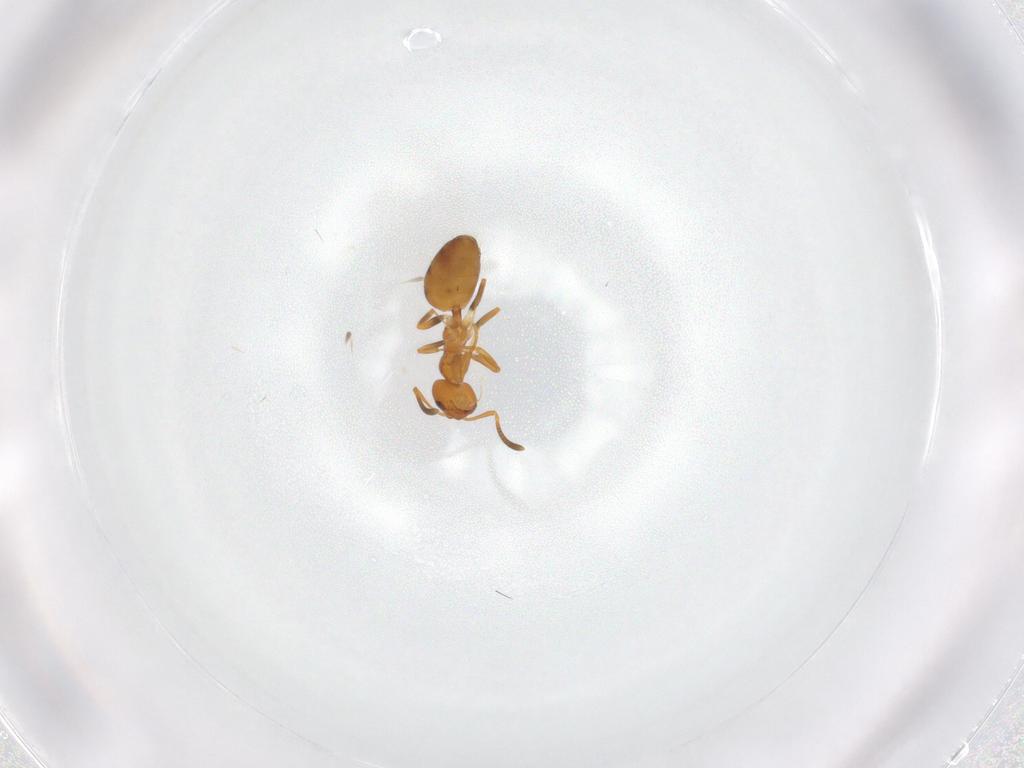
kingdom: Animalia
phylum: Arthropoda
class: Insecta
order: Hymenoptera
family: Formicidae
